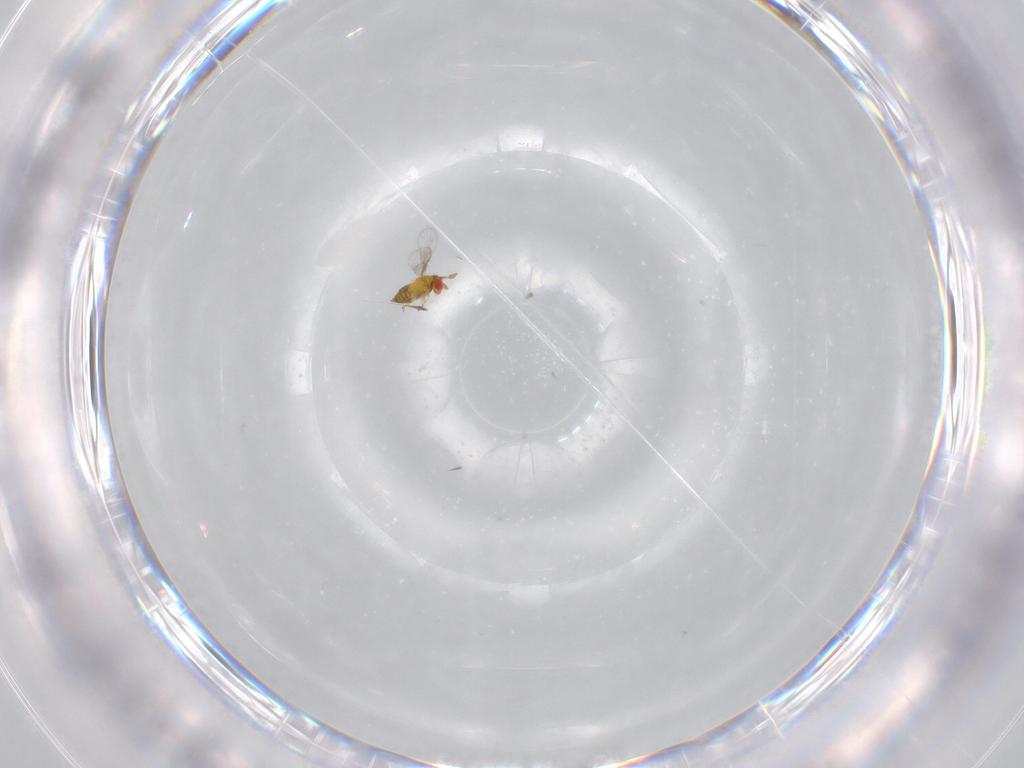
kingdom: Animalia
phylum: Arthropoda
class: Insecta
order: Hymenoptera
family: Trichogrammatidae
